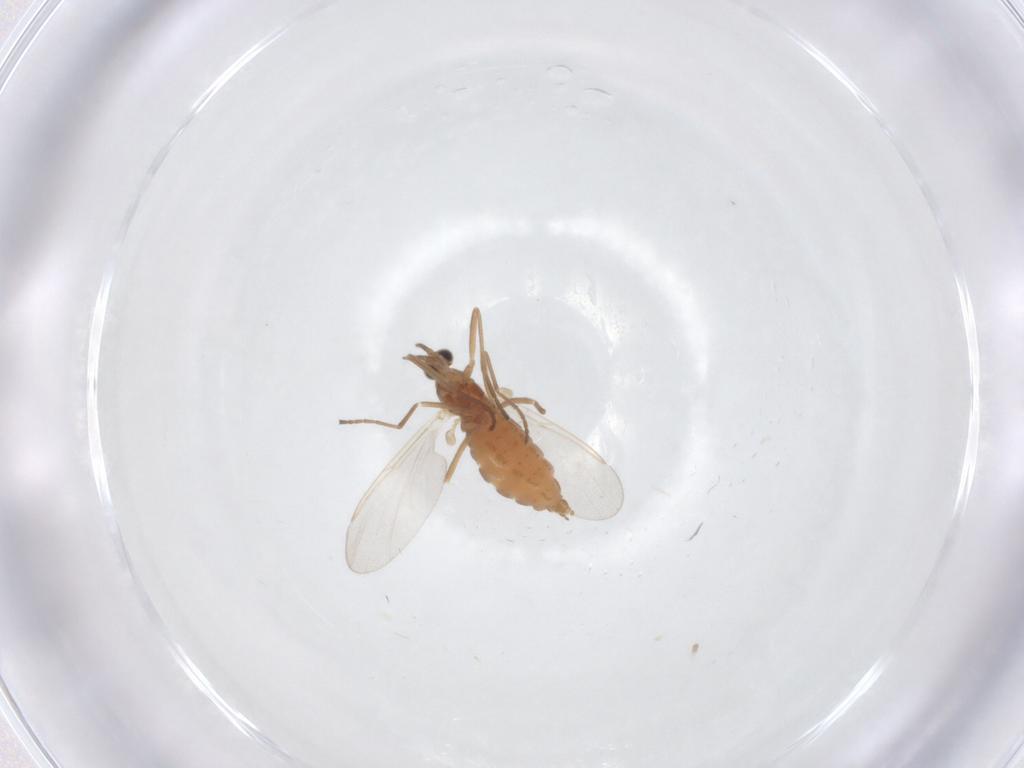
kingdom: Animalia
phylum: Arthropoda
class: Insecta
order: Diptera
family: Cecidomyiidae
